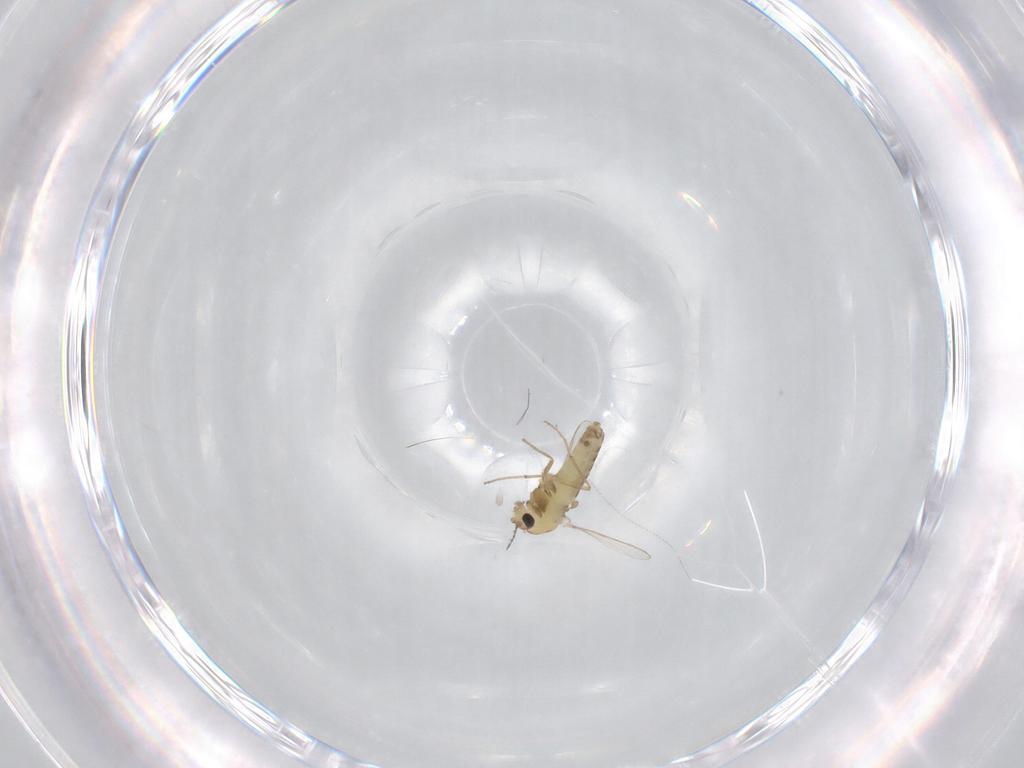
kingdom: Animalia
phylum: Arthropoda
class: Insecta
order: Diptera
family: Chironomidae
